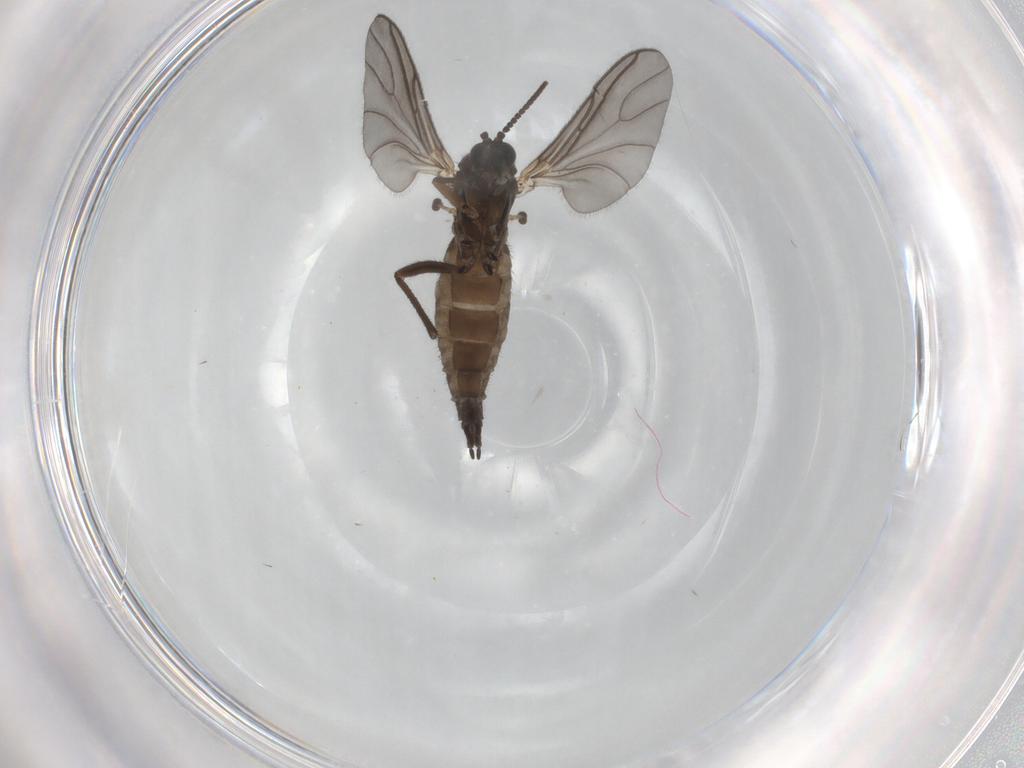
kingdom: Animalia
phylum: Arthropoda
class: Insecta
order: Diptera
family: Sciaridae
